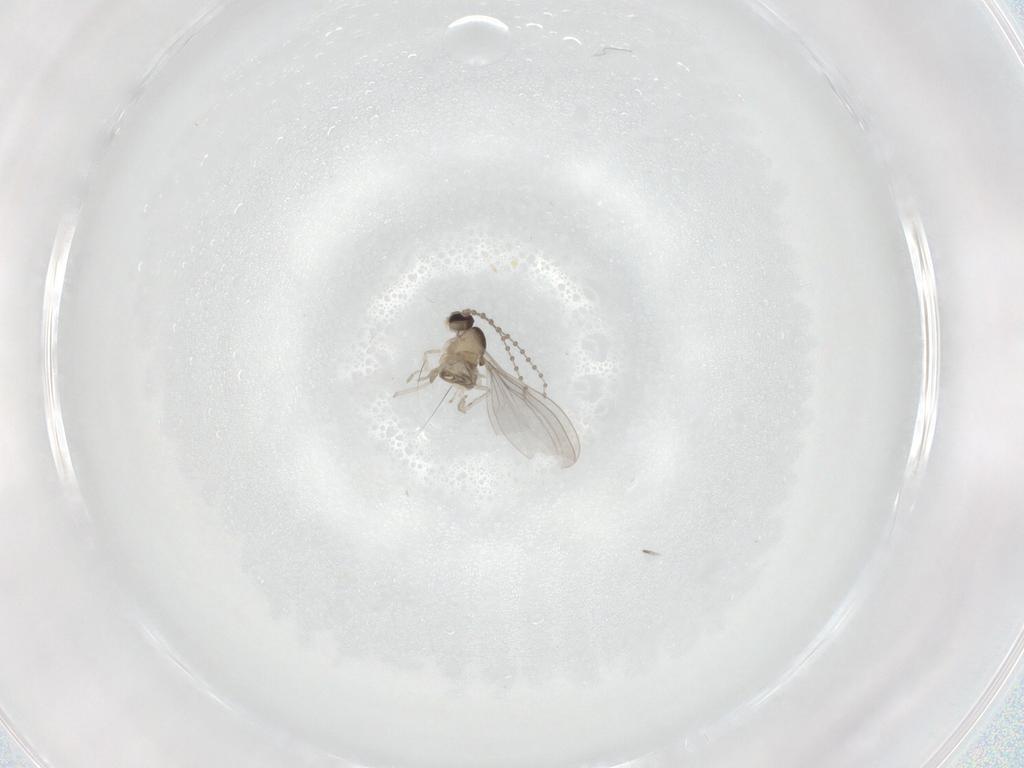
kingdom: Animalia
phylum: Arthropoda
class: Insecta
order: Diptera
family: Cecidomyiidae
